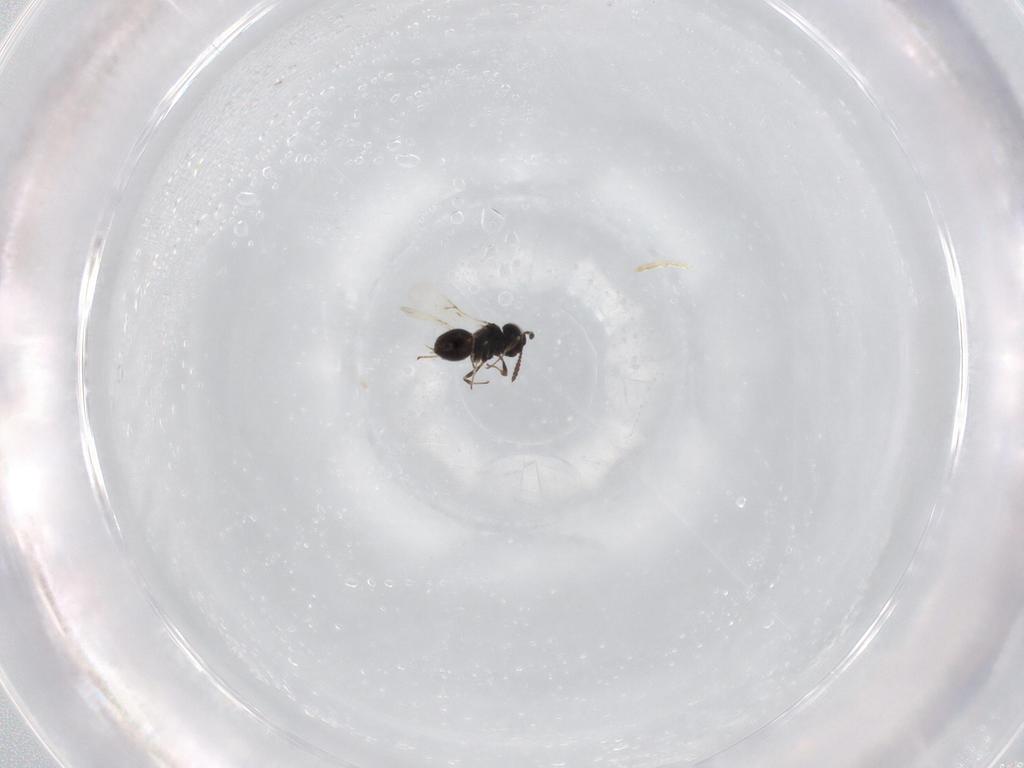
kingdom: Animalia
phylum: Arthropoda
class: Insecta
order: Hymenoptera
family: Scelionidae
